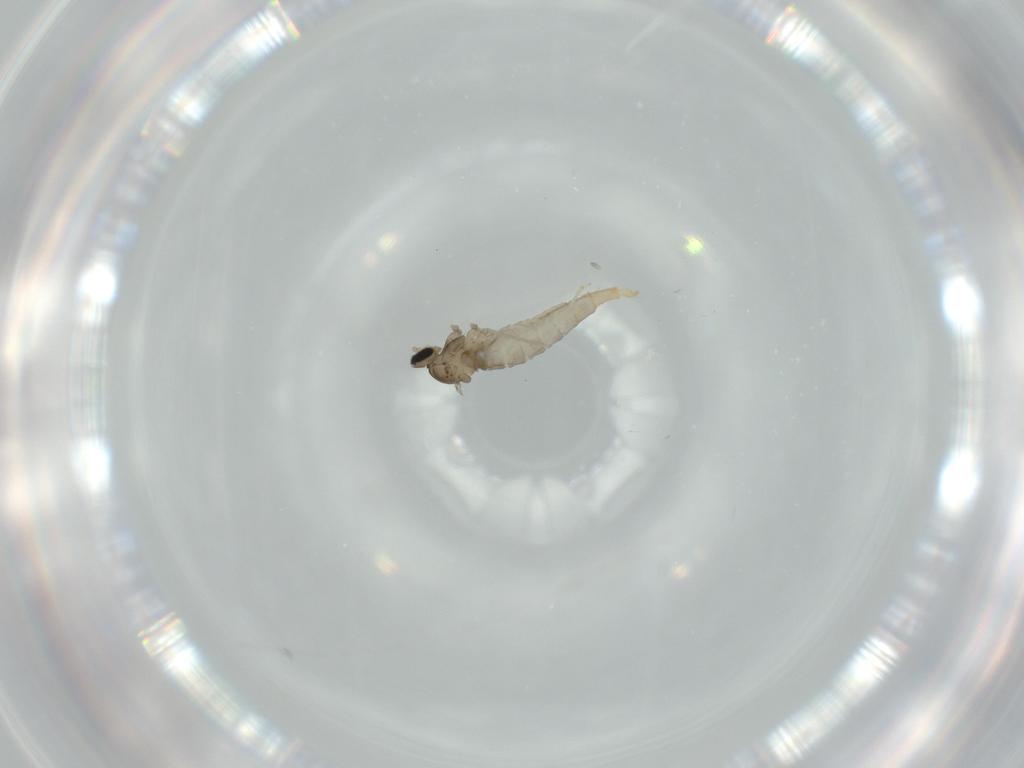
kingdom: Animalia
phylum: Arthropoda
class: Insecta
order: Diptera
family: Cecidomyiidae
